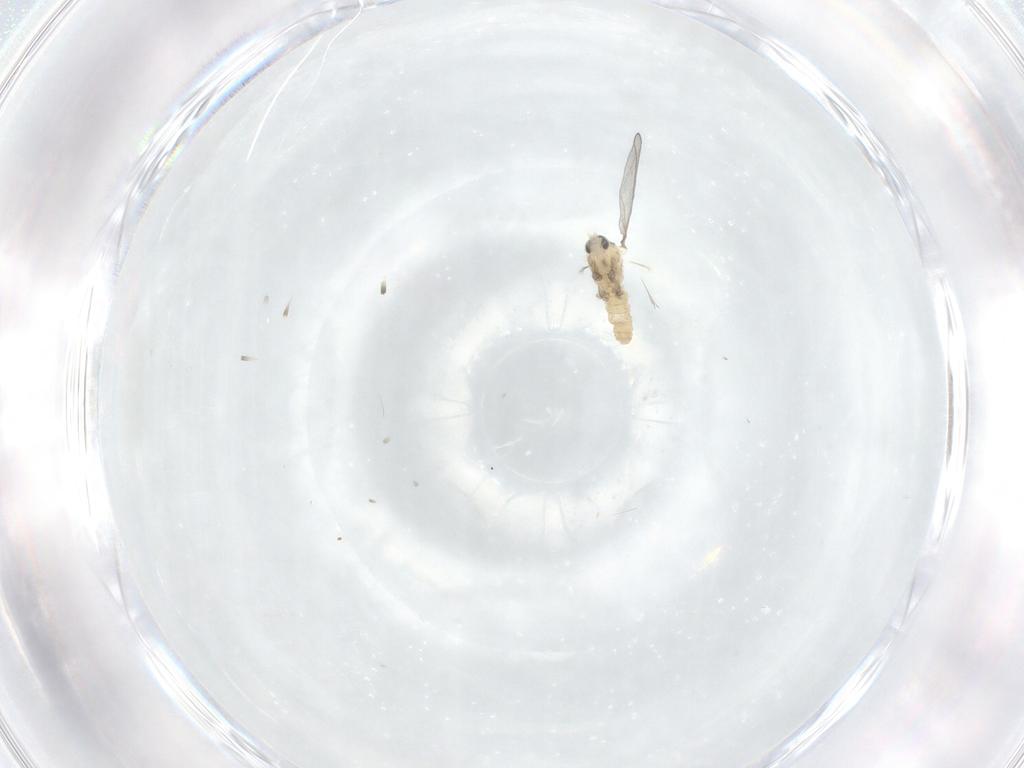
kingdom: Animalia
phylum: Arthropoda
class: Insecta
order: Diptera
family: Cecidomyiidae
